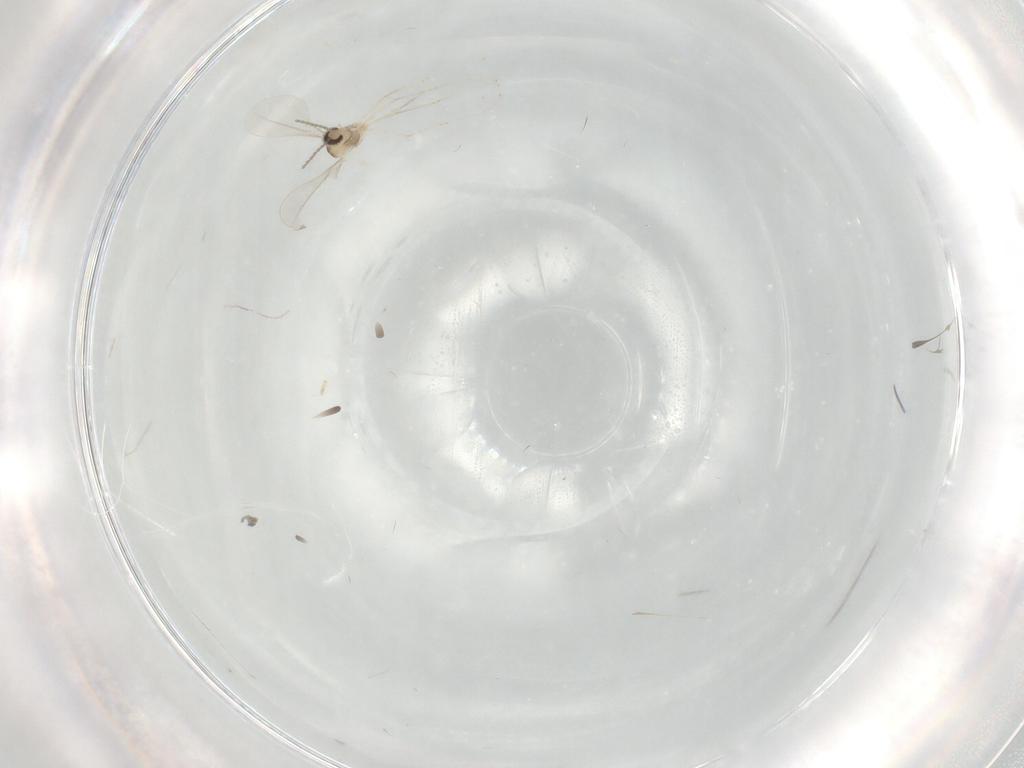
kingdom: Animalia
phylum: Arthropoda
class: Insecta
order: Diptera
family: Cecidomyiidae
